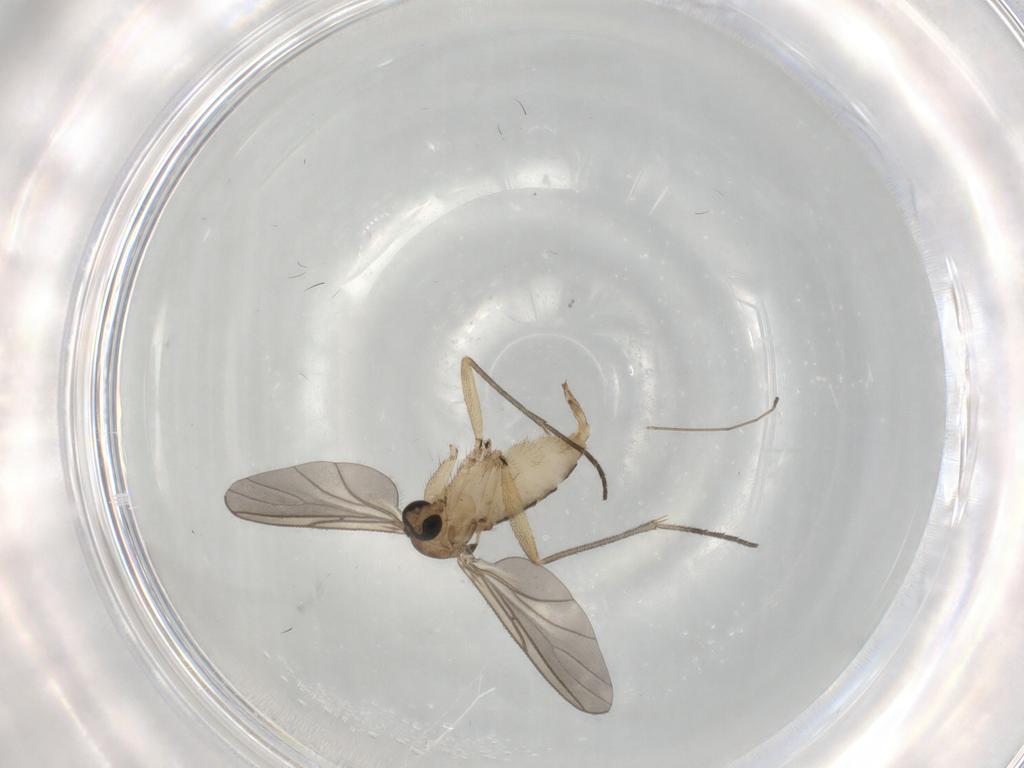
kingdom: Animalia
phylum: Arthropoda
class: Insecta
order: Diptera
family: Sciaridae
